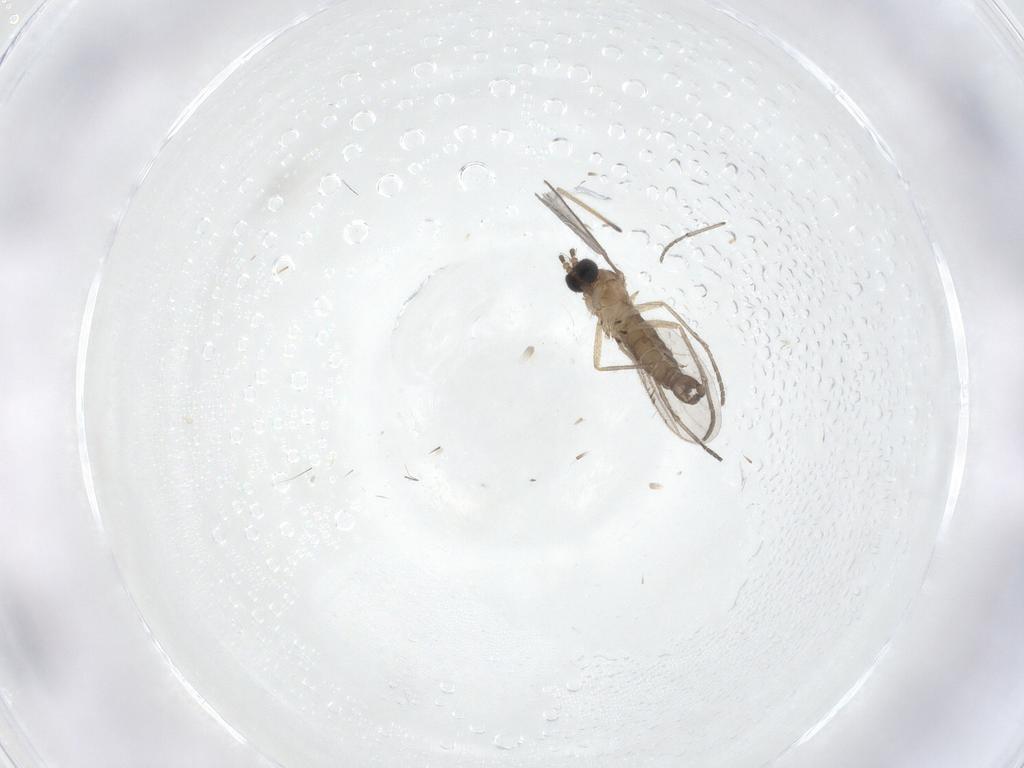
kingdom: Animalia
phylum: Arthropoda
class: Insecta
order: Diptera
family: Sciaridae
